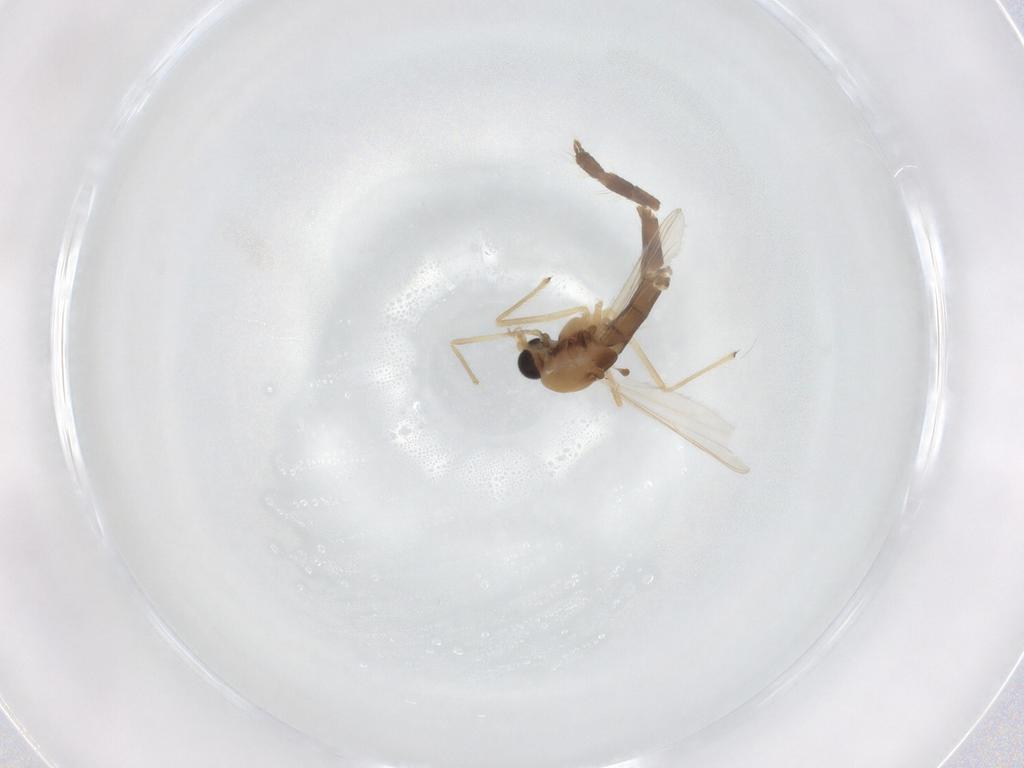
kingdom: Animalia
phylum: Arthropoda
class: Insecta
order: Diptera
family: Chironomidae
